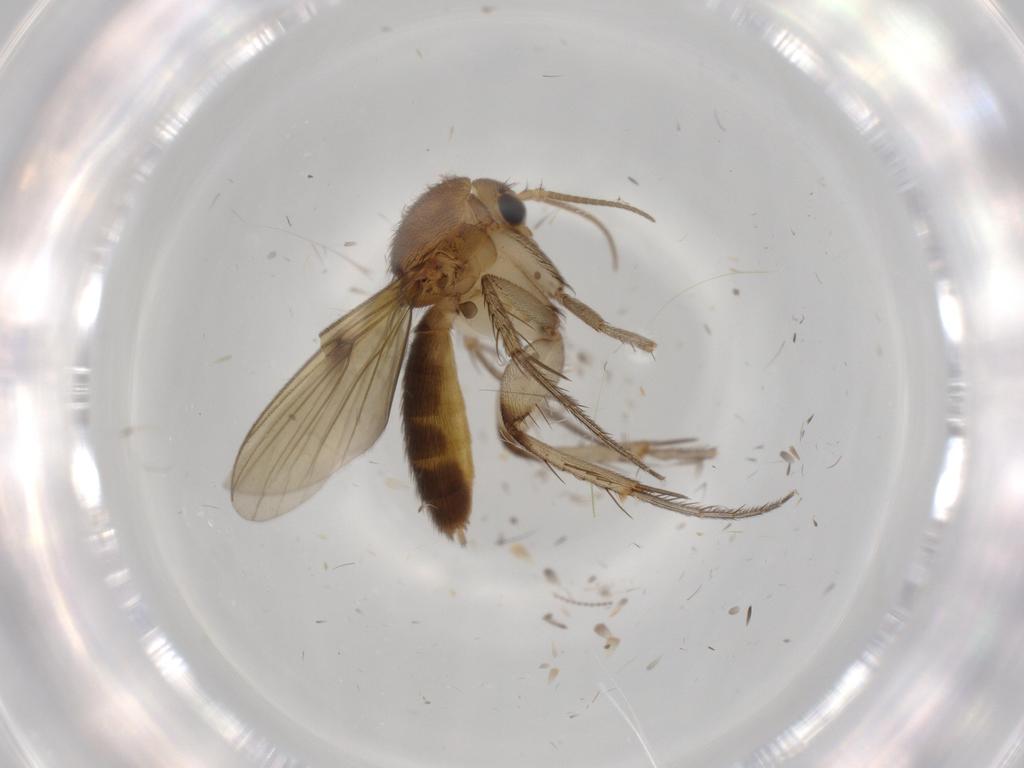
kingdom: Animalia
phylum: Arthropoda
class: Insecta
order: Diptera
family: Mycetophilidae
